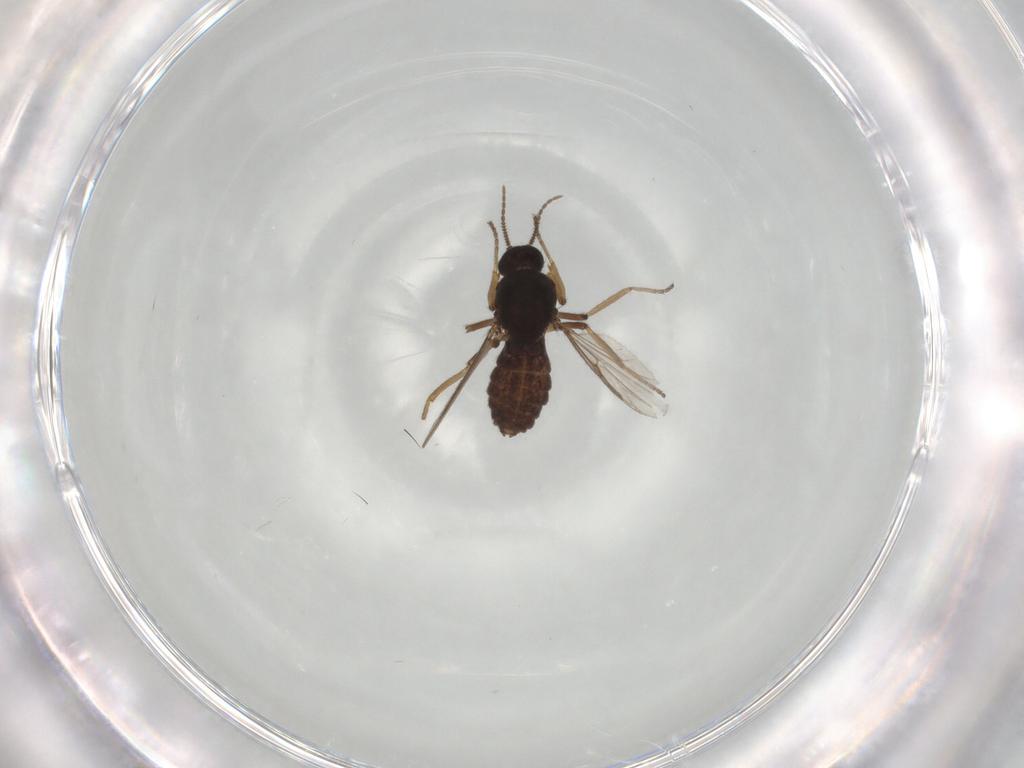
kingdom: Animalia
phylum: Arthropoda
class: Insecta
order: Diptera
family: Ceratopogonidae
